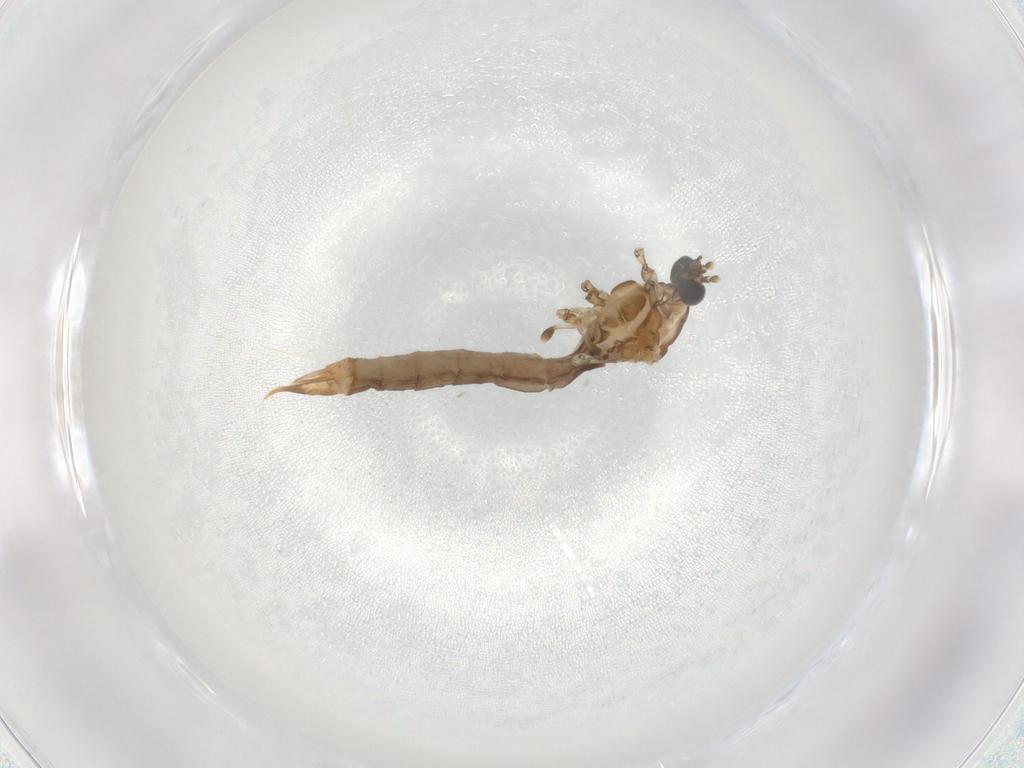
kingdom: Animalia
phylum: Arthropoda
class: Insecta
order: Diptera
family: Limoniidae
